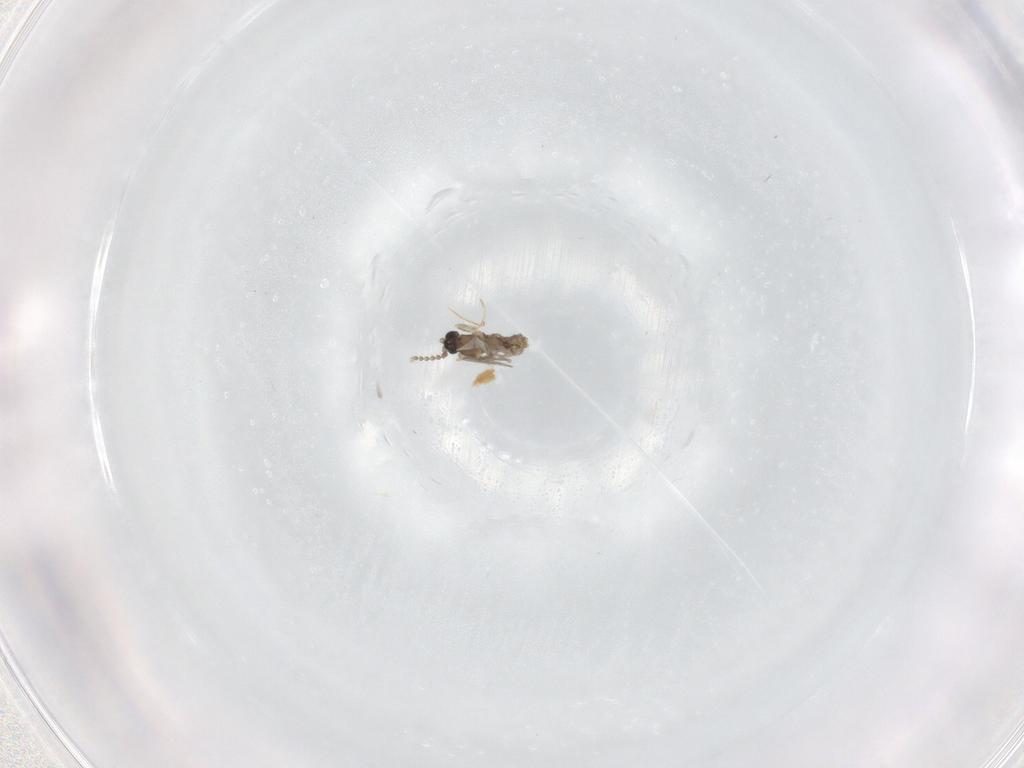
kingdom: Animalia
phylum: Arthropoda
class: Insecta
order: Diptera
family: Cecidomyiidae
